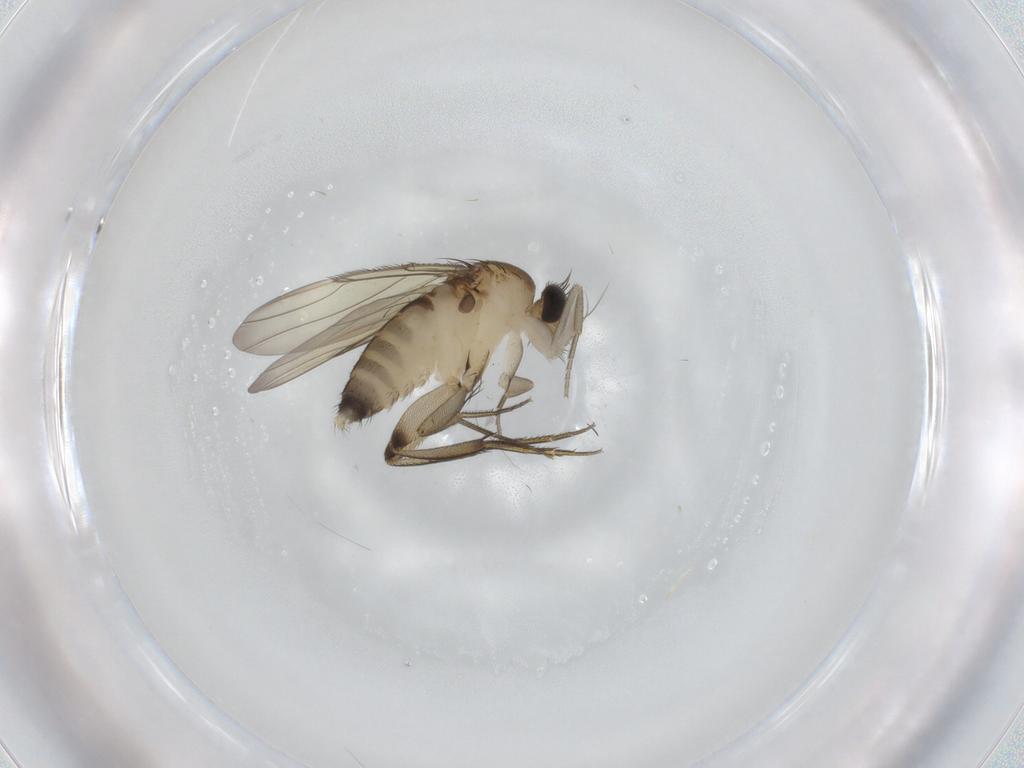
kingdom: Animalia
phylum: Arthropoda
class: Insecta
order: Diptera
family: Phoridae
